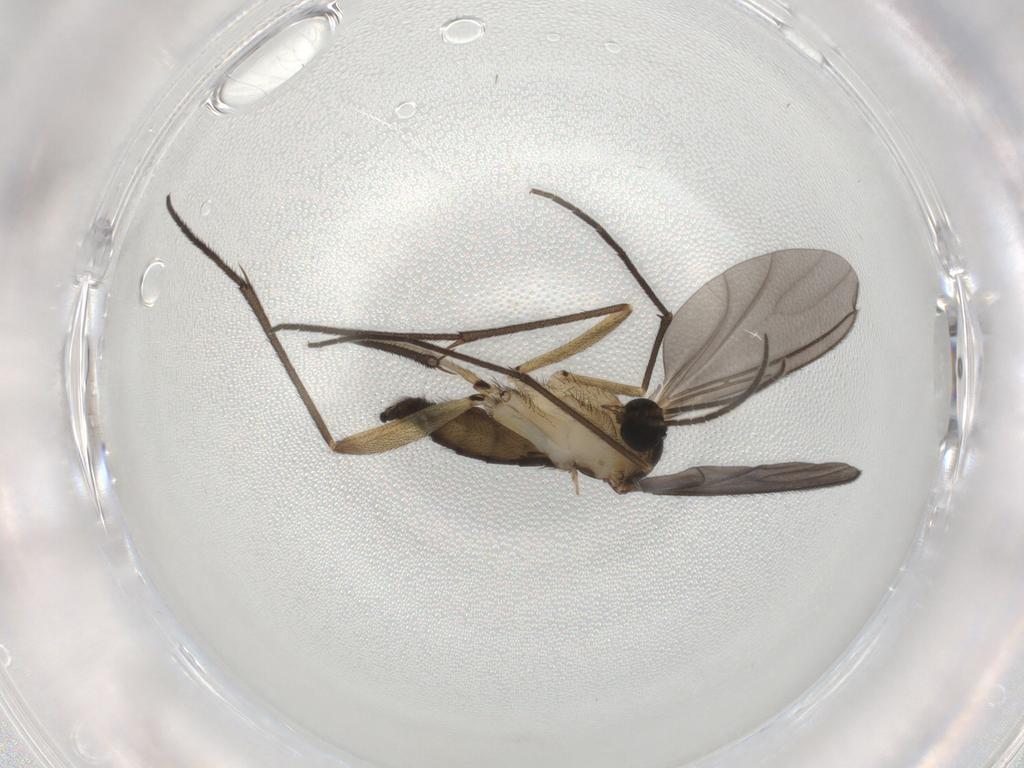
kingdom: Animalia
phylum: Arthropoda
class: Insecta
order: Diptera
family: Sciaridae
